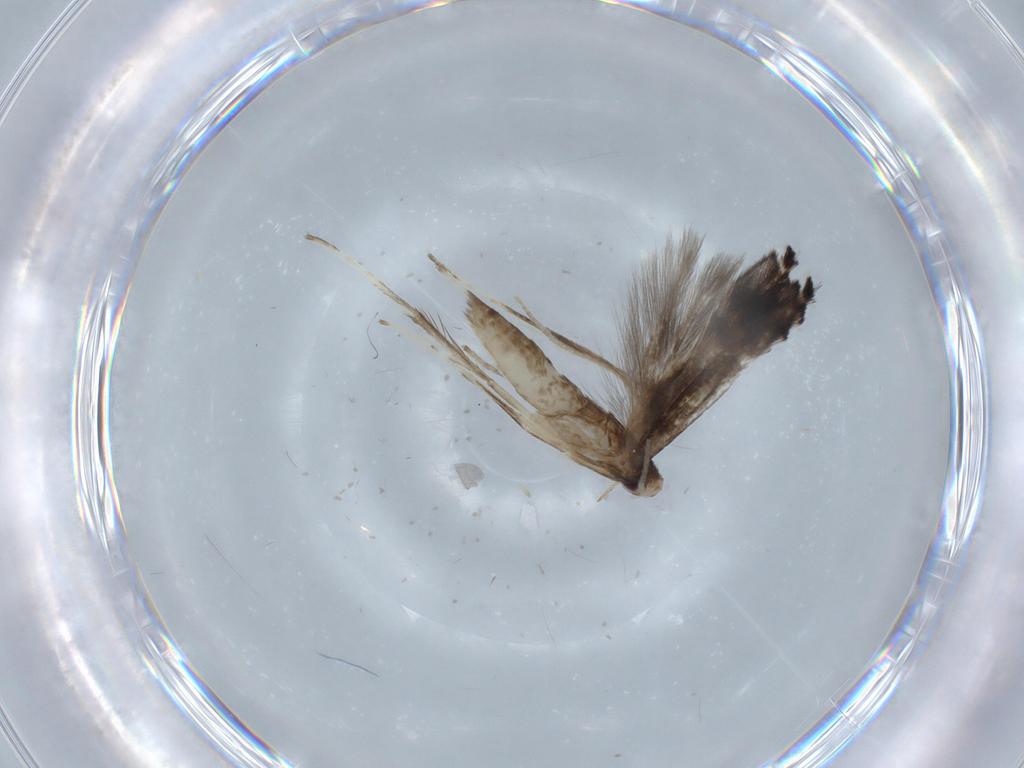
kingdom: Animalia
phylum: Arthropoda
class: Insecta
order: Lepidoptera
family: Gracillariidae
